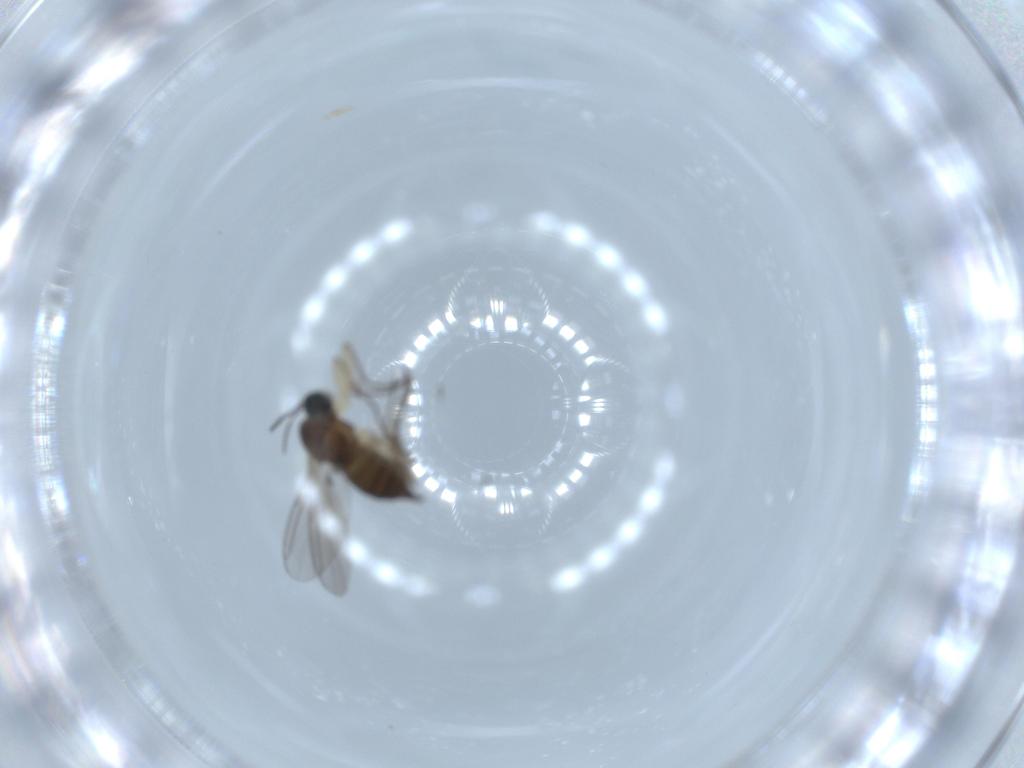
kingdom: Animalia
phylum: Arthropoda
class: Insecta
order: Diptera
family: Sciaridae
